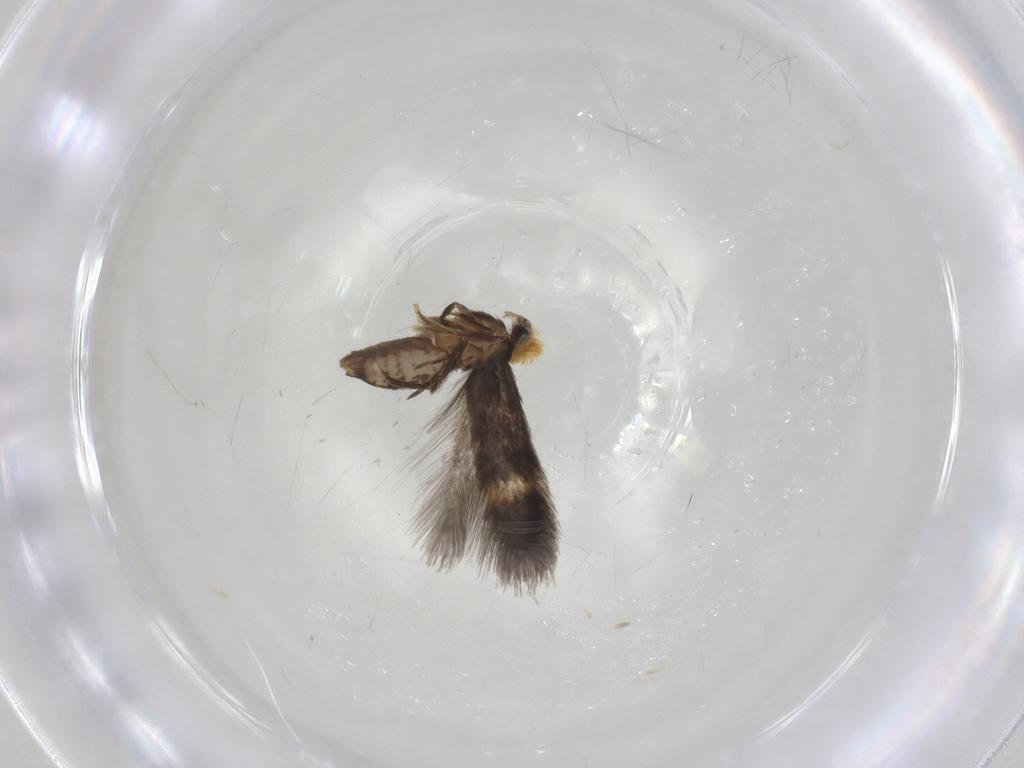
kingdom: Animalia
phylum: Arthropoda
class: Insecta
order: Lepidoptera
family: Nepticulidae
